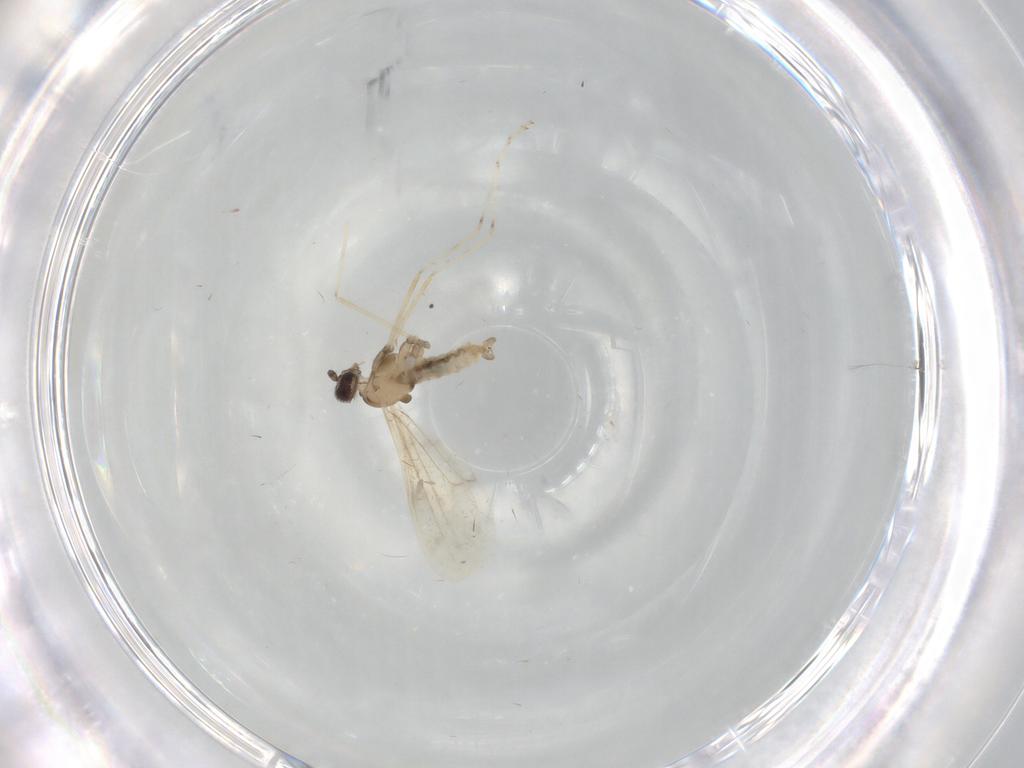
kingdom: Animalia
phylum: Arthropoda
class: Insecta
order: Diptera
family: Cecidomyiidae
